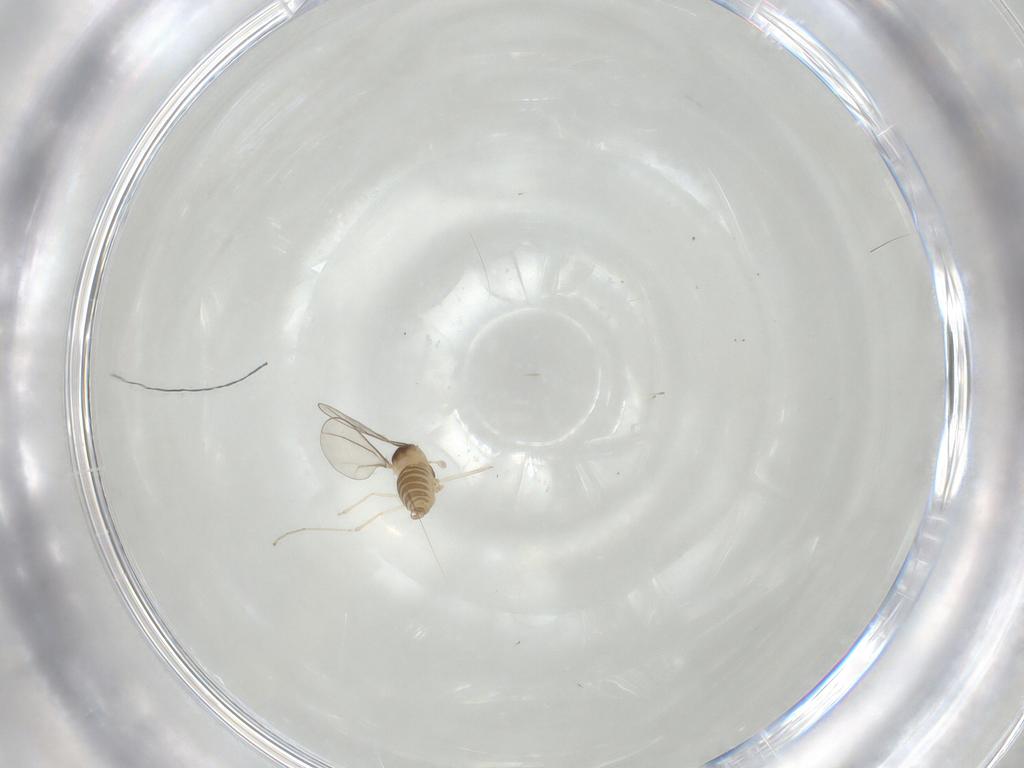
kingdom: Animalia
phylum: Arthropoda
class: Insecta
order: Diptera
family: Cecidomyiidae
